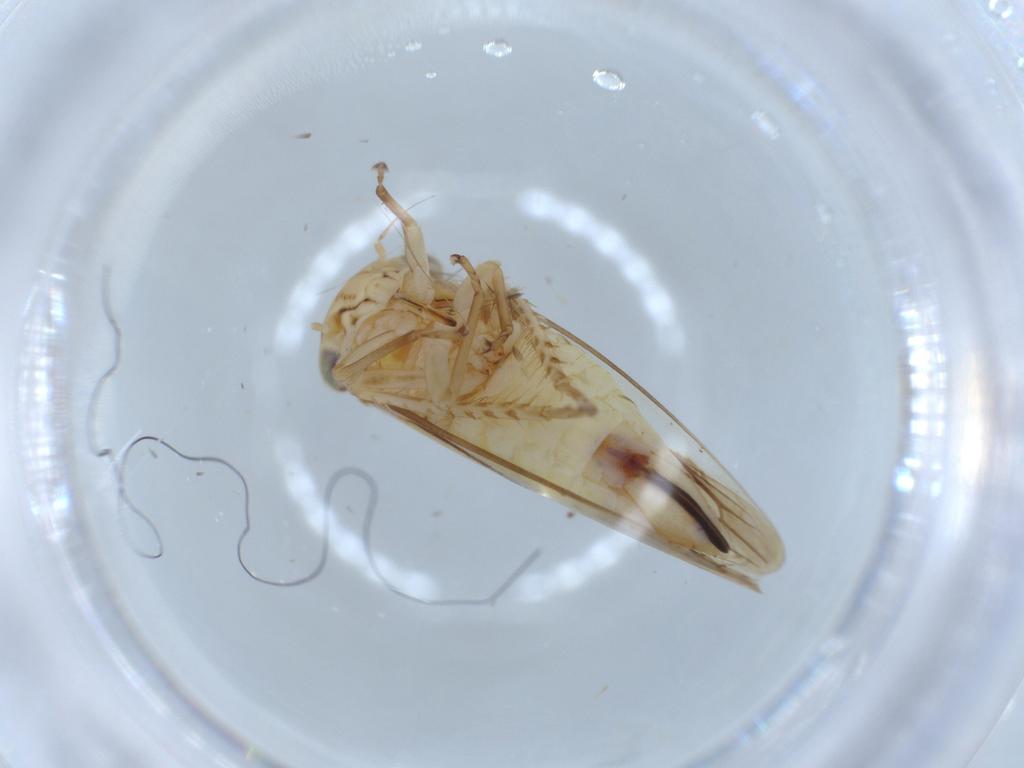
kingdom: Animalia
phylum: Arthropoda
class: Insecta
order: Hemiptera
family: Cicadellidae
